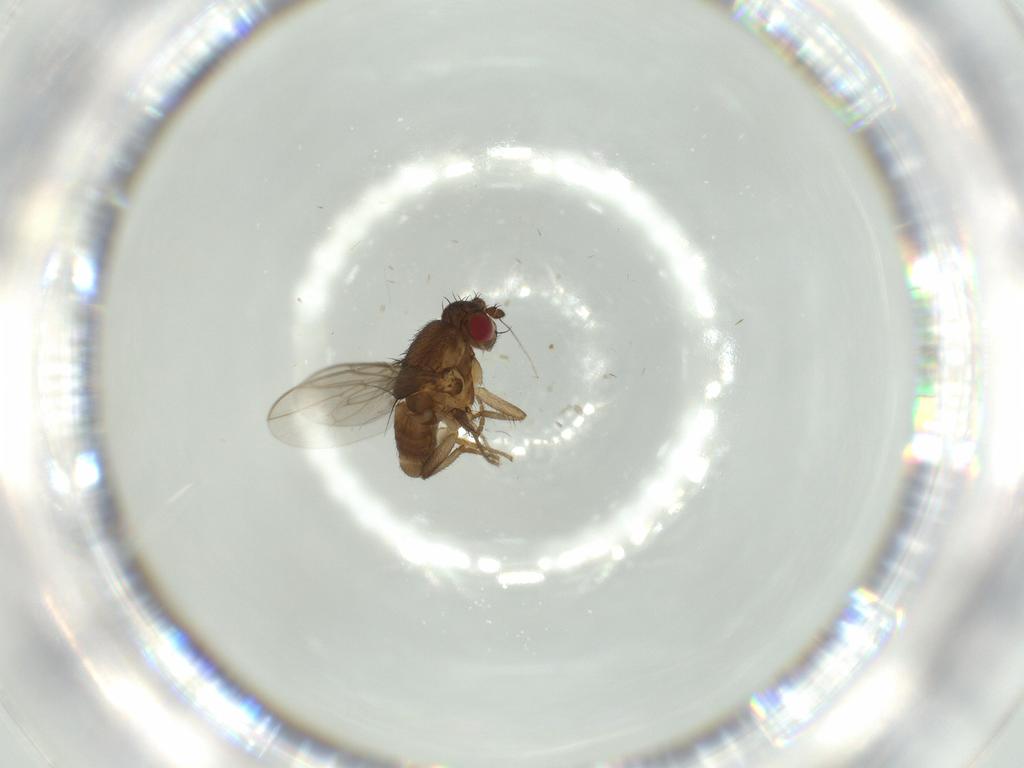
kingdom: Animalia
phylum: Arthropoda
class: Insecta
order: Diptera
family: Sphaeroceridae
